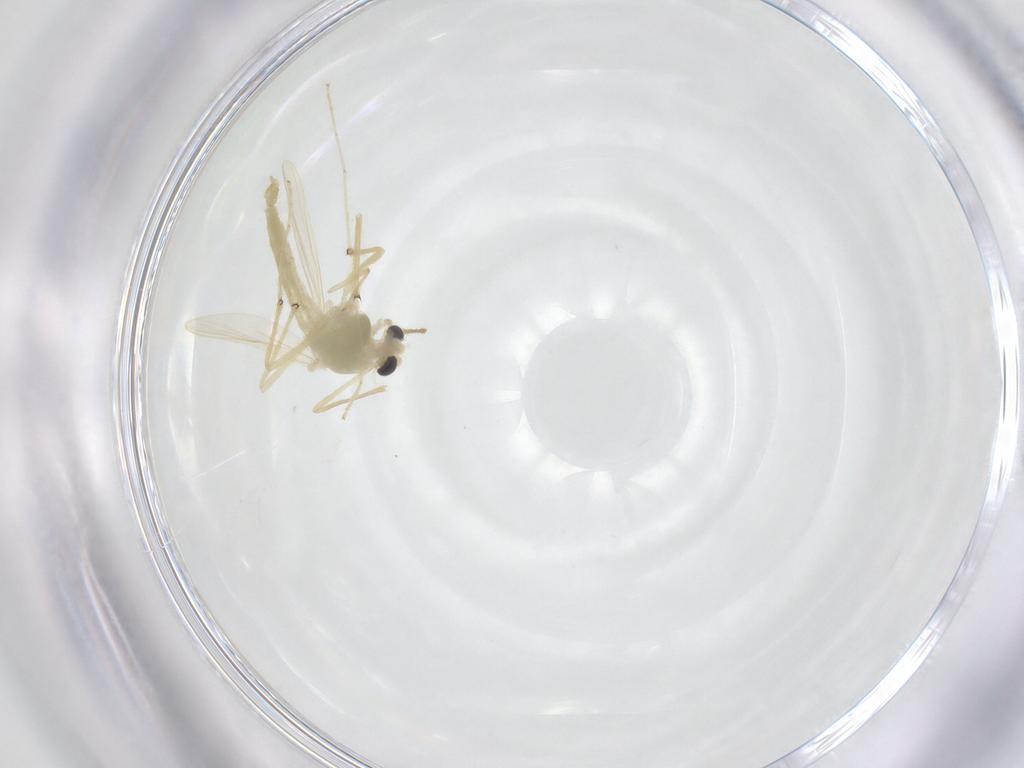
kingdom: Animalia
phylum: Arthropoda
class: Insecta
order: Diptera
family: Chironomidae
